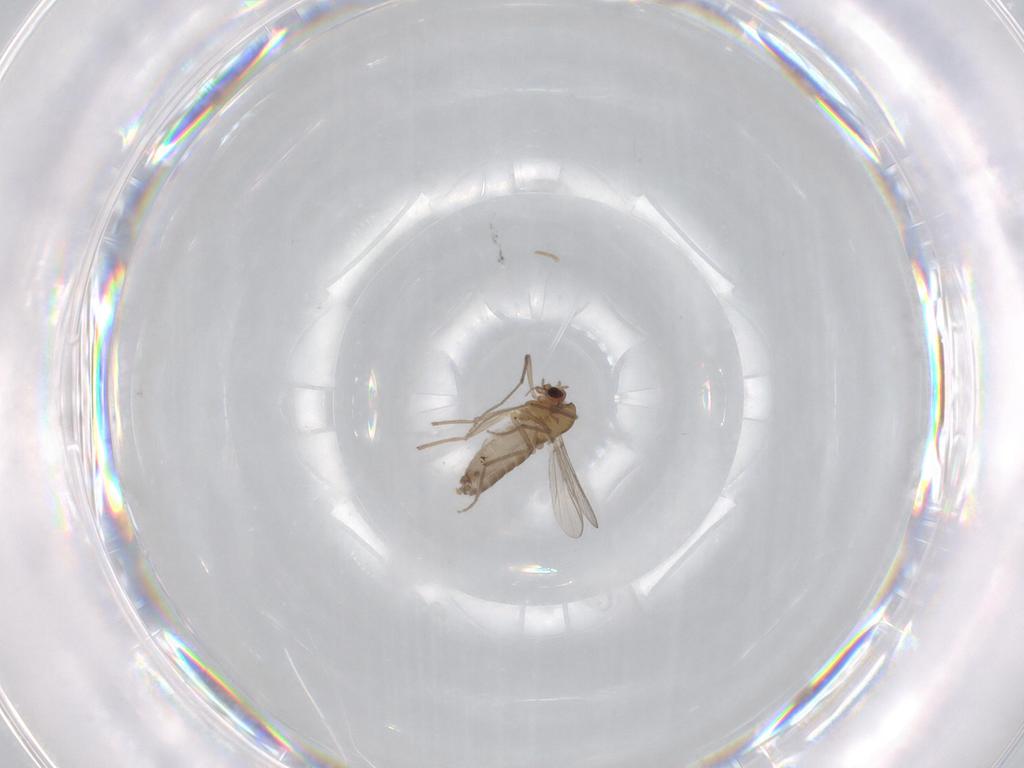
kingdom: Animalia
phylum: Arthropoda
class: Insecta
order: Diptera
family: Chironomidae
